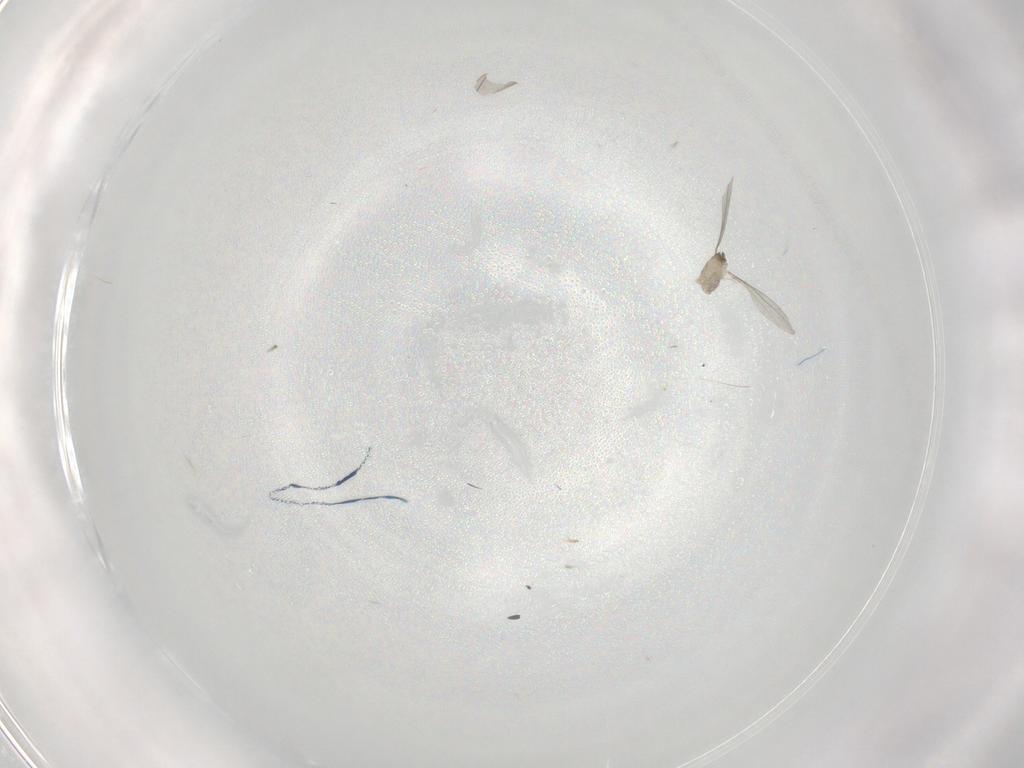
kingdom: Animalia
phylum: Arthropoda
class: Insecta
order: Diptera
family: Cecidomyiidae
